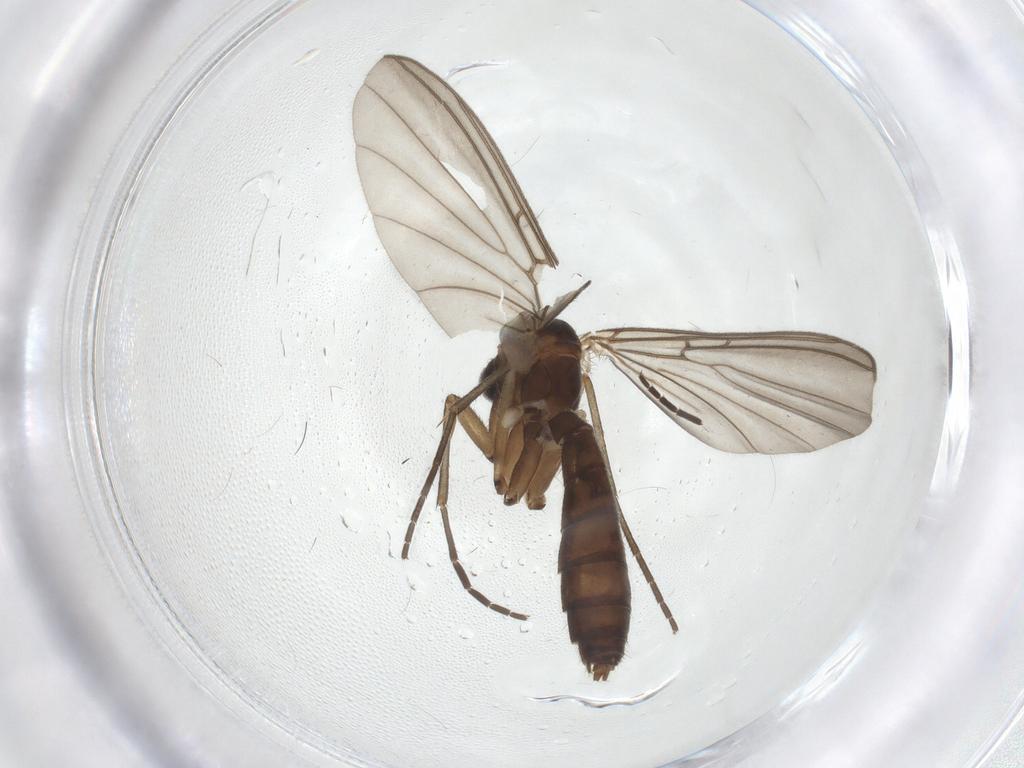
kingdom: Animalia
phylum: Arthropoda
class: Insecta
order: Diptera
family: Sciaridae
